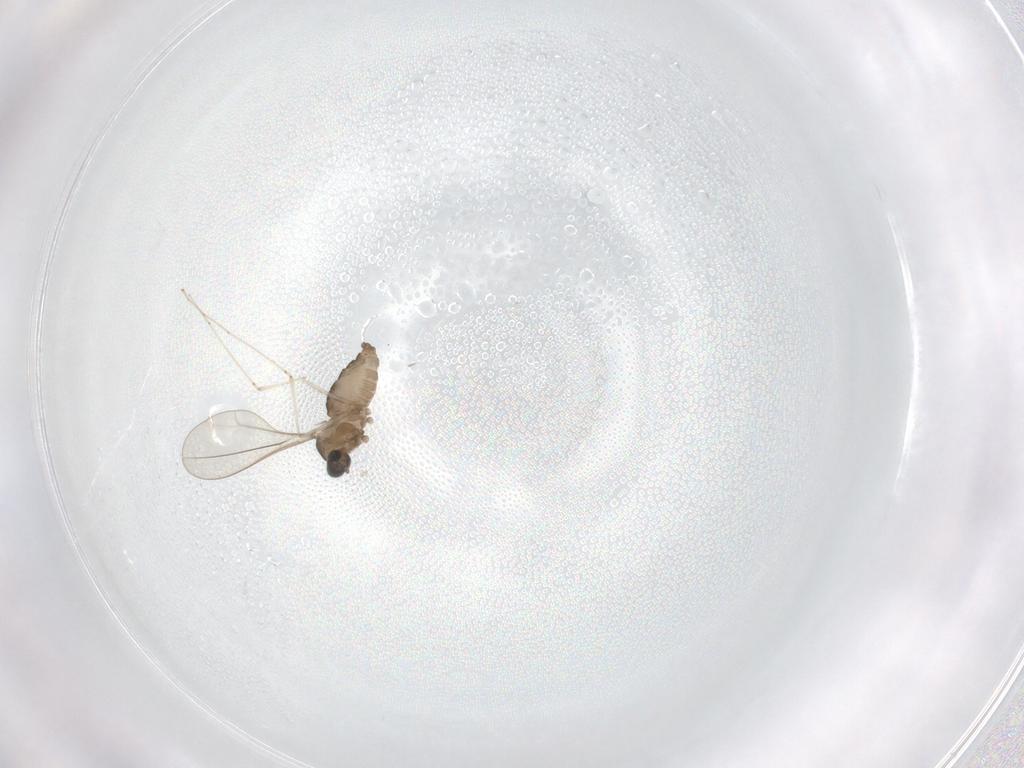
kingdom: Animalia
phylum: Arthropoda
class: Insecta
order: Diptera
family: Cecidomyiidae
